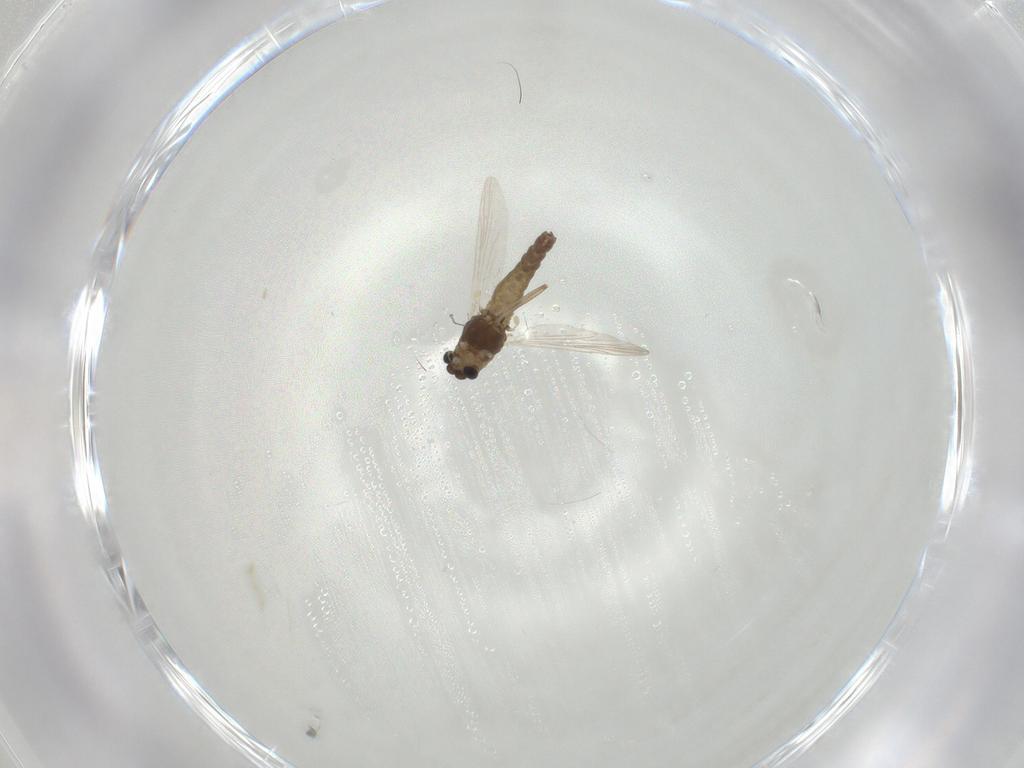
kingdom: Animalia
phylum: Arthropoda
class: Insecta
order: Diptera
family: Chironomidae
